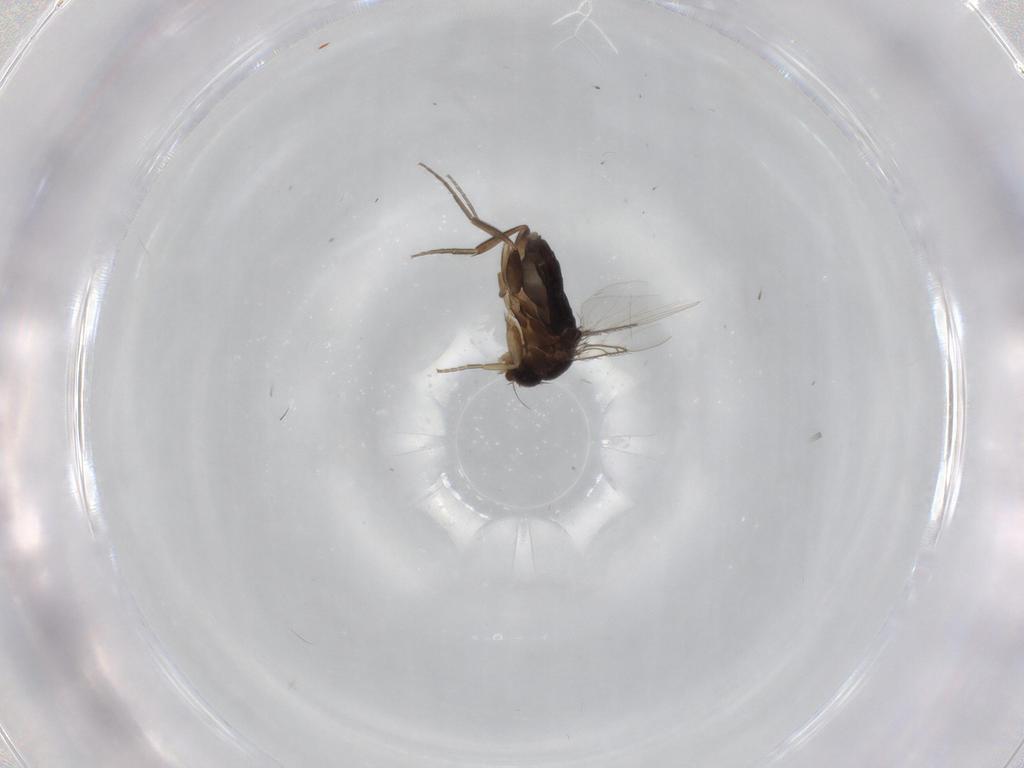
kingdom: Animalia
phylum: Arthropoda
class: Insecta
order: Diptera
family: Phoridae
